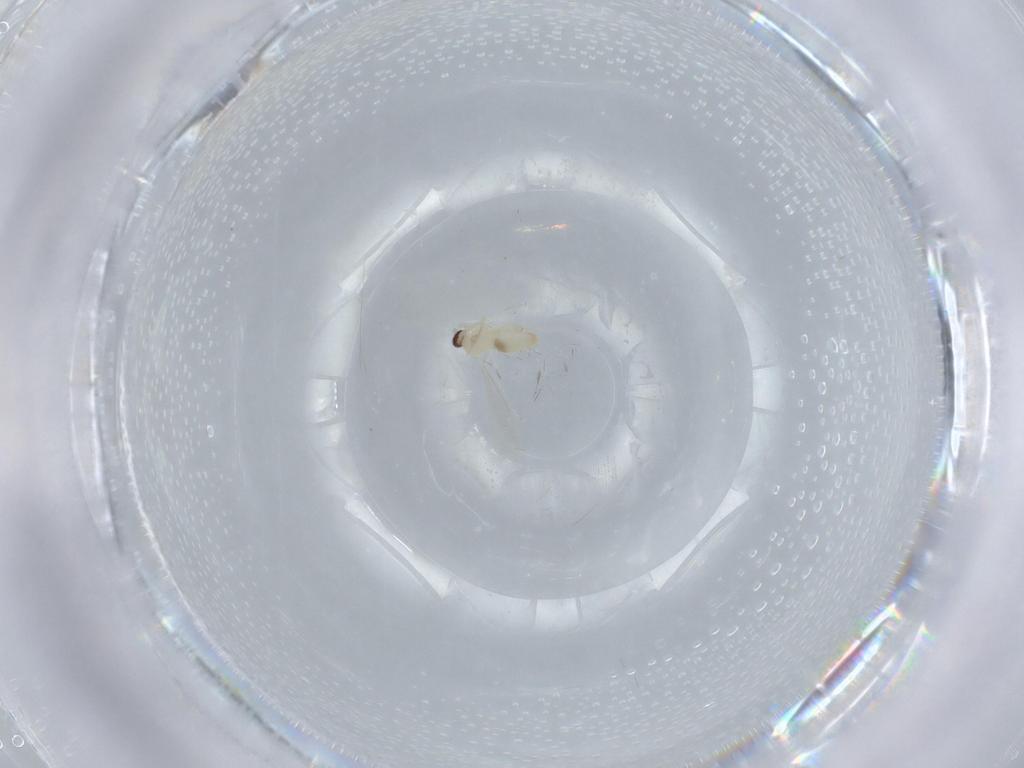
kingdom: Animalia
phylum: Arthropoda
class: Insecta
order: Diptera
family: Cecidomyiidae
